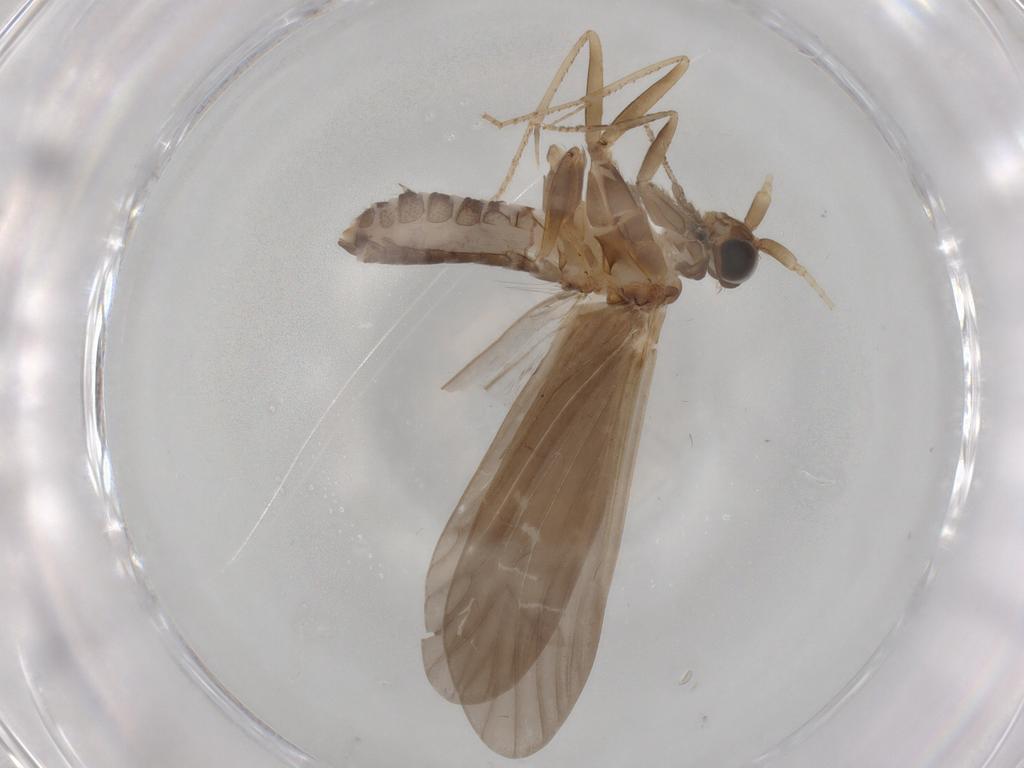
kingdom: Animalia
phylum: Arthropoda
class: Insecta
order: Trichoptera
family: Helicopsychidae
